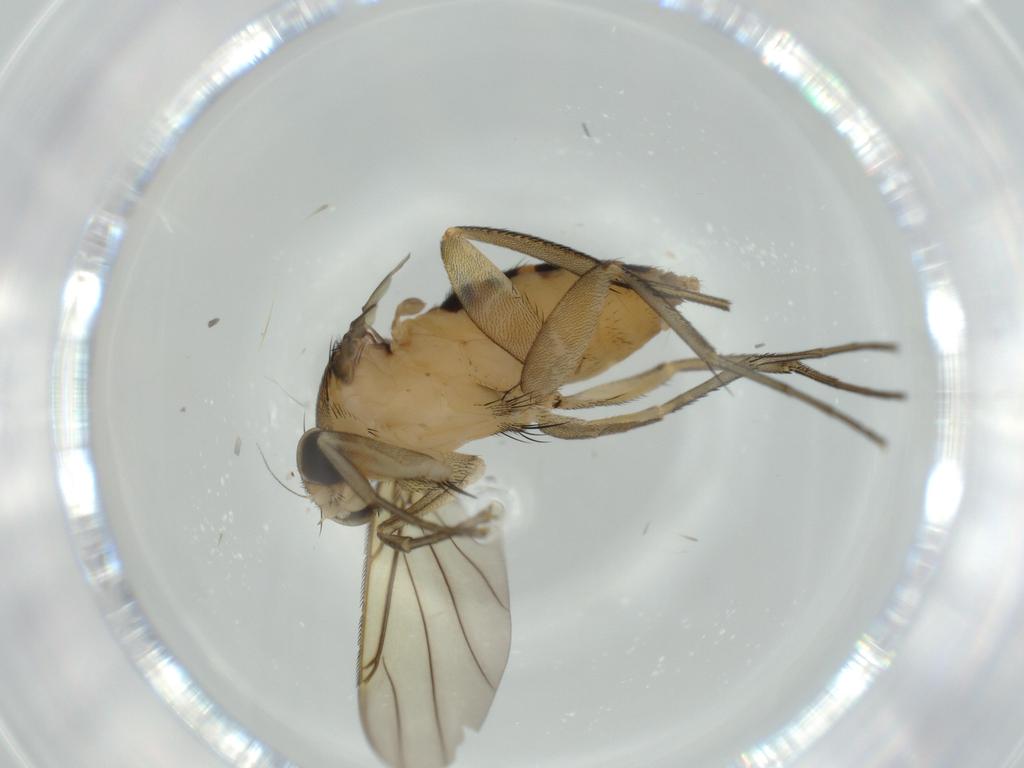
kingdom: Animalia
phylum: Arthropoda
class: Insecta
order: Diptera
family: Phoridae
